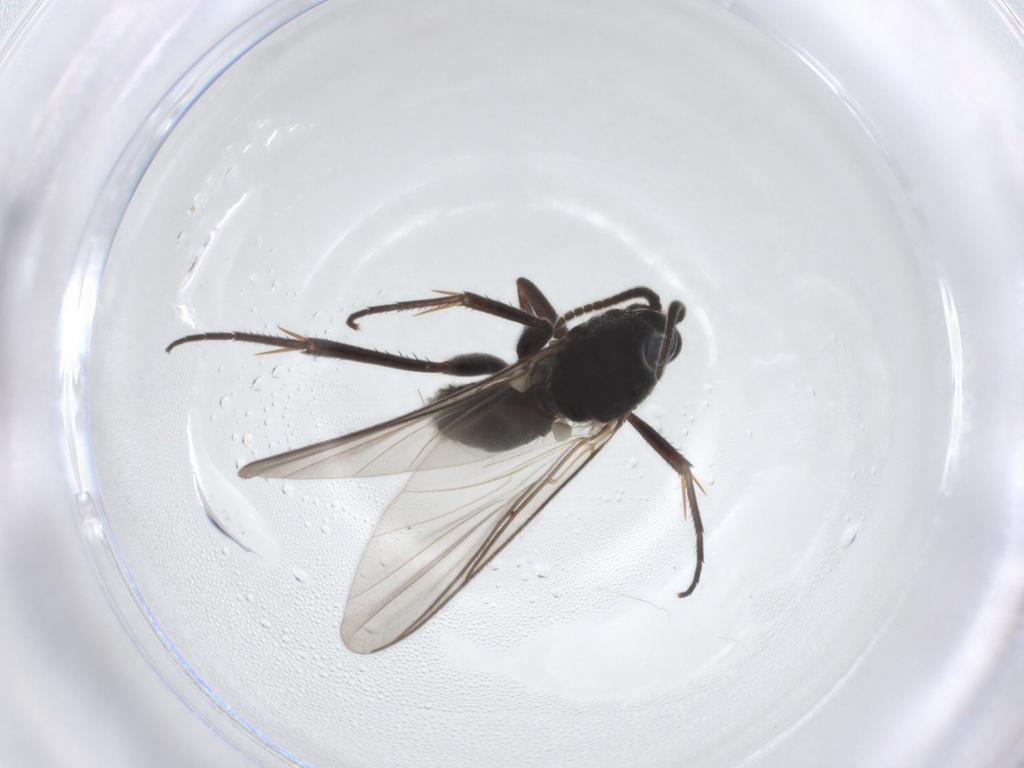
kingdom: Animalia
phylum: Arthropoda
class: Insecta
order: Diptera
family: Mycetophilidae
